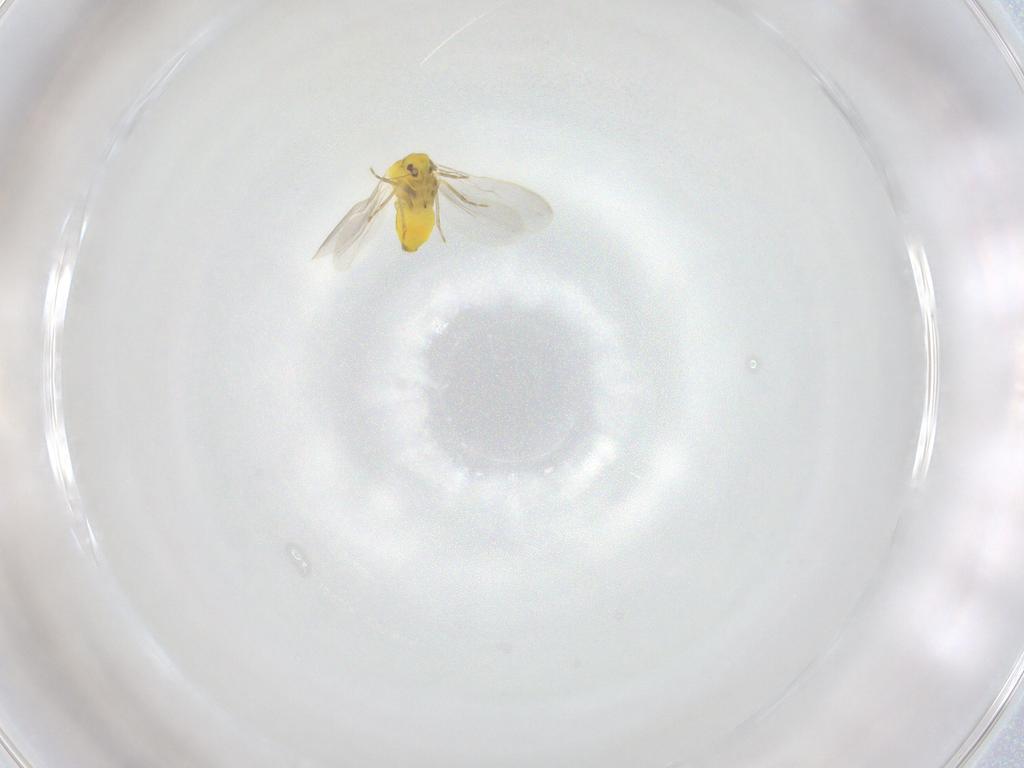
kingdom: Animalia
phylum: Arthropoda
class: Insecta
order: Hemiptera
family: Aleyrodidae
